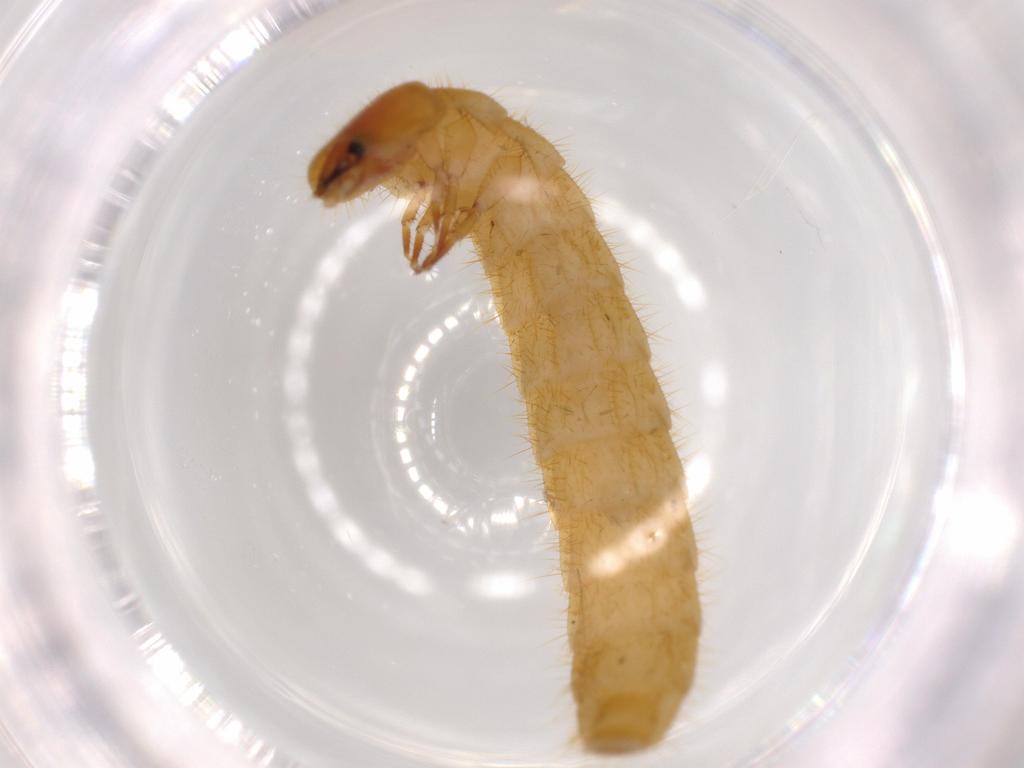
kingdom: Animalia
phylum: Arthropoda
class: Insecta
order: Coleoptera
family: Phengodidae
